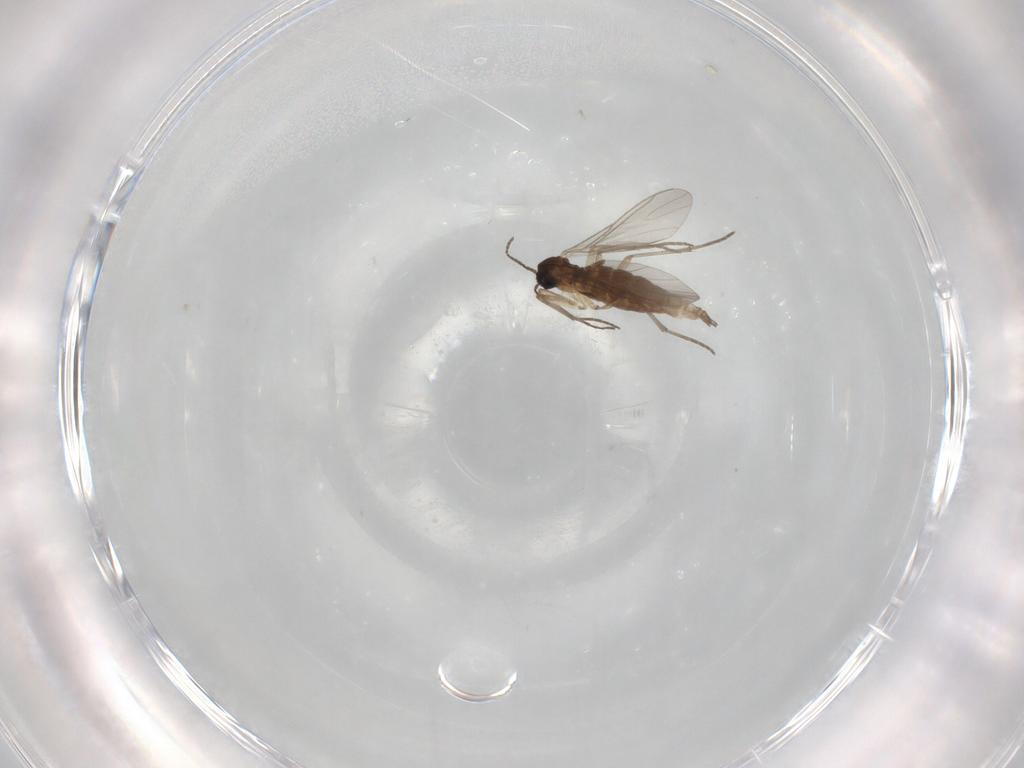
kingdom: Animalia
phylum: Arthropoda
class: Insecta
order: Diptera
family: Sciaridae
